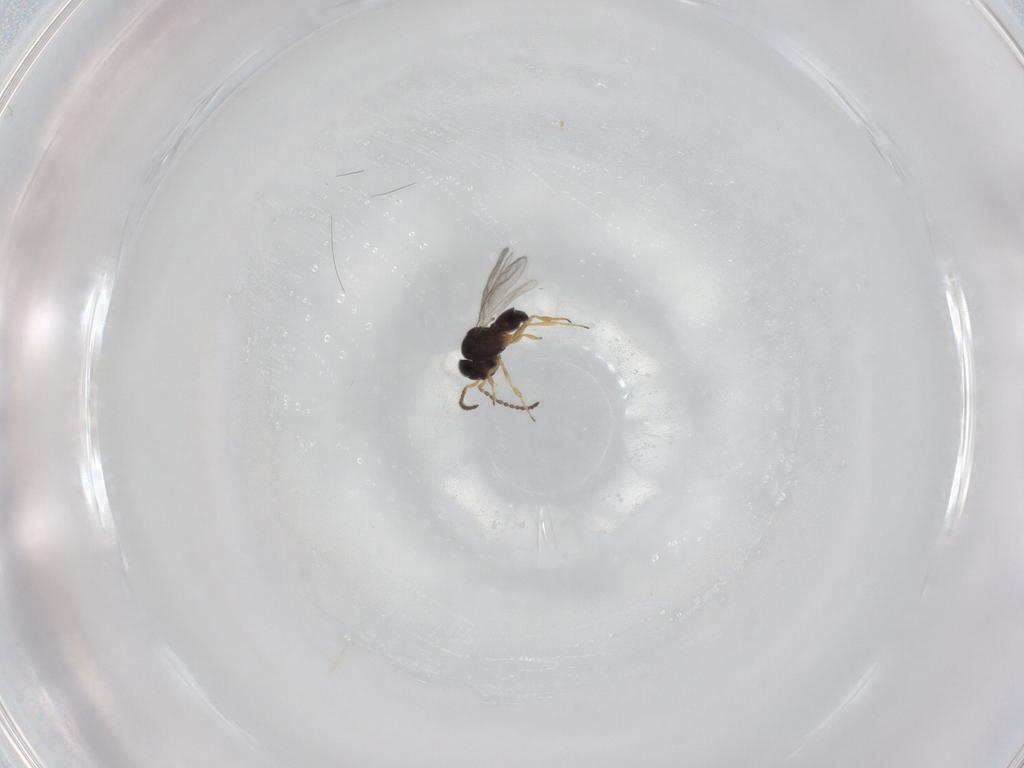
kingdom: Animalia
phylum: Arthropoda
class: Insecta
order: Hymenoptera
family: Scelionidae
